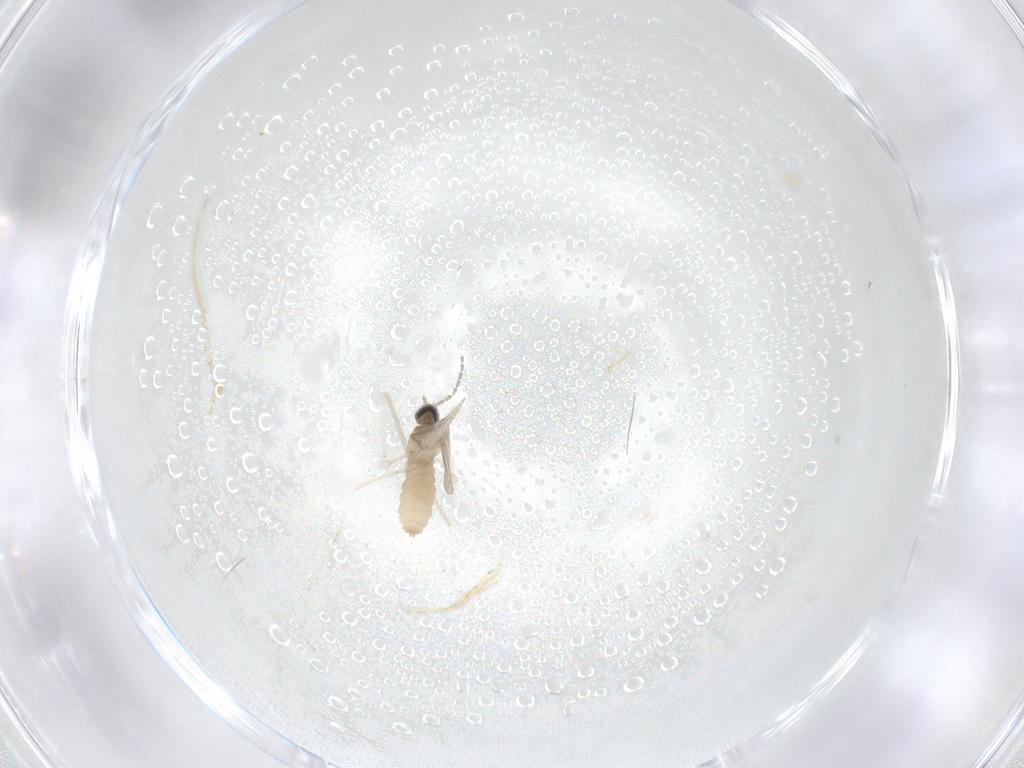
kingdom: Animalia
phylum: Arthropoda
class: Insecta
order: Diptera
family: Cecidomyiidae
